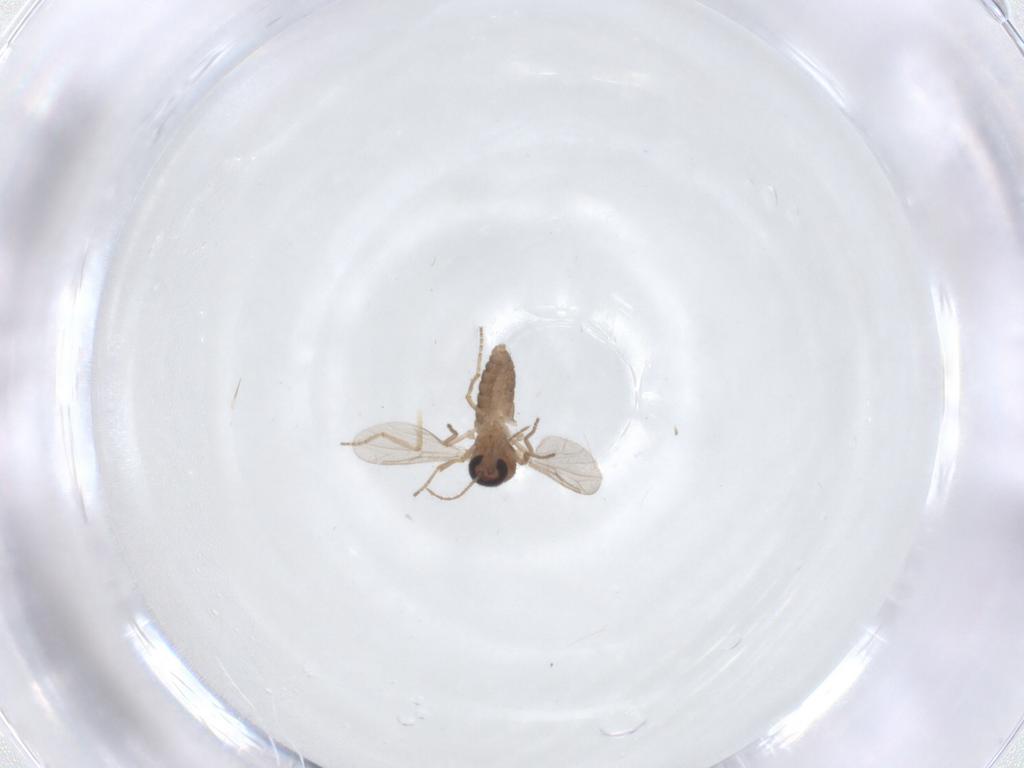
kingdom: Animalia
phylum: Arthropoda
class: Insecta
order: Diptera
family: Ceratopogonidae
